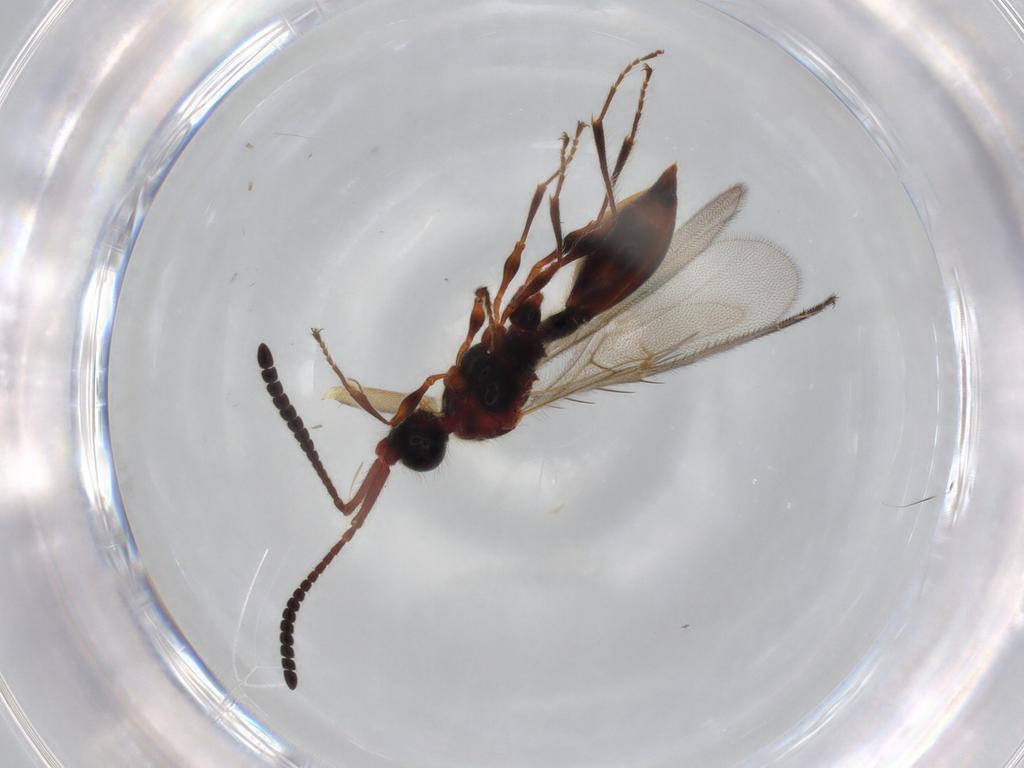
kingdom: Animalia
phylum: Arthropoda
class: Insecta
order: Hymenoptera
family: Diapriidae
